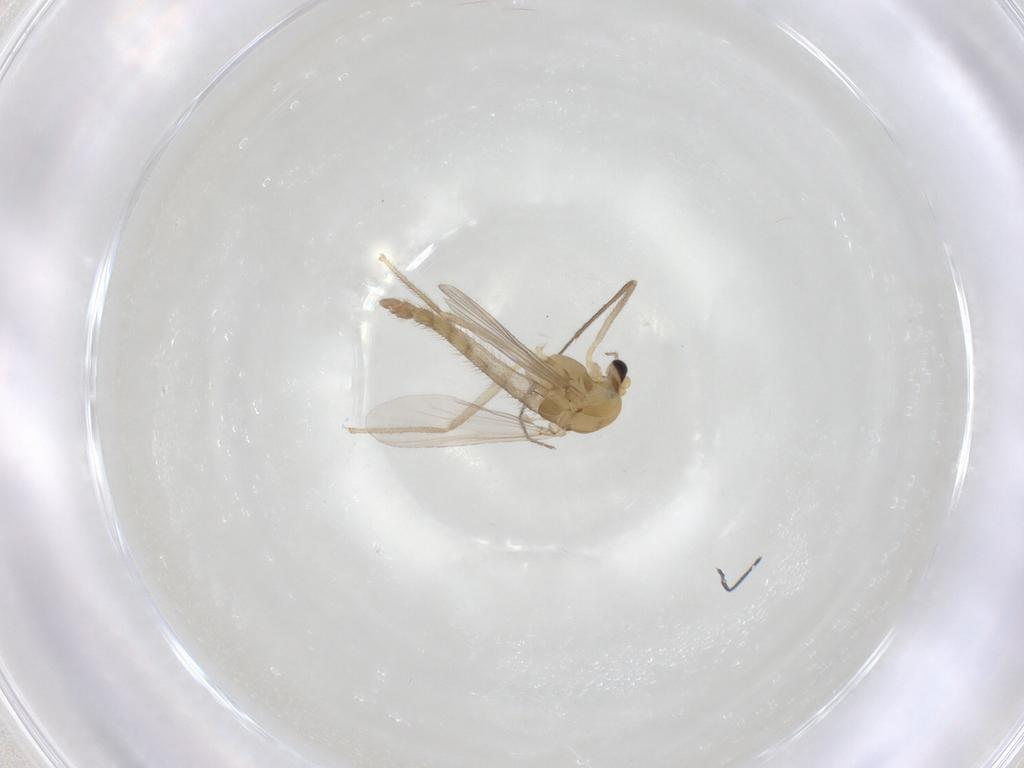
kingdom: Animalia
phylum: Arthropoda
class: Insecta
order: Diptera
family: Chironomidae
